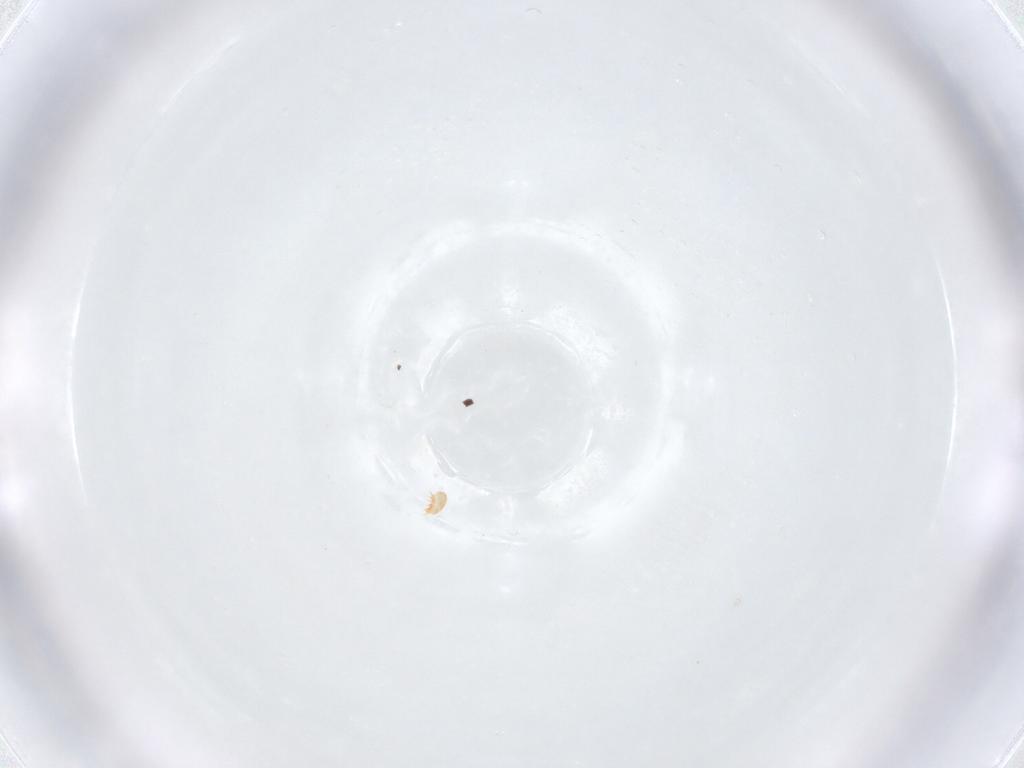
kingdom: Animalia
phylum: Arthropoda
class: Arachnida
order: Sarcoptiformes
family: Brachychthoniidae
